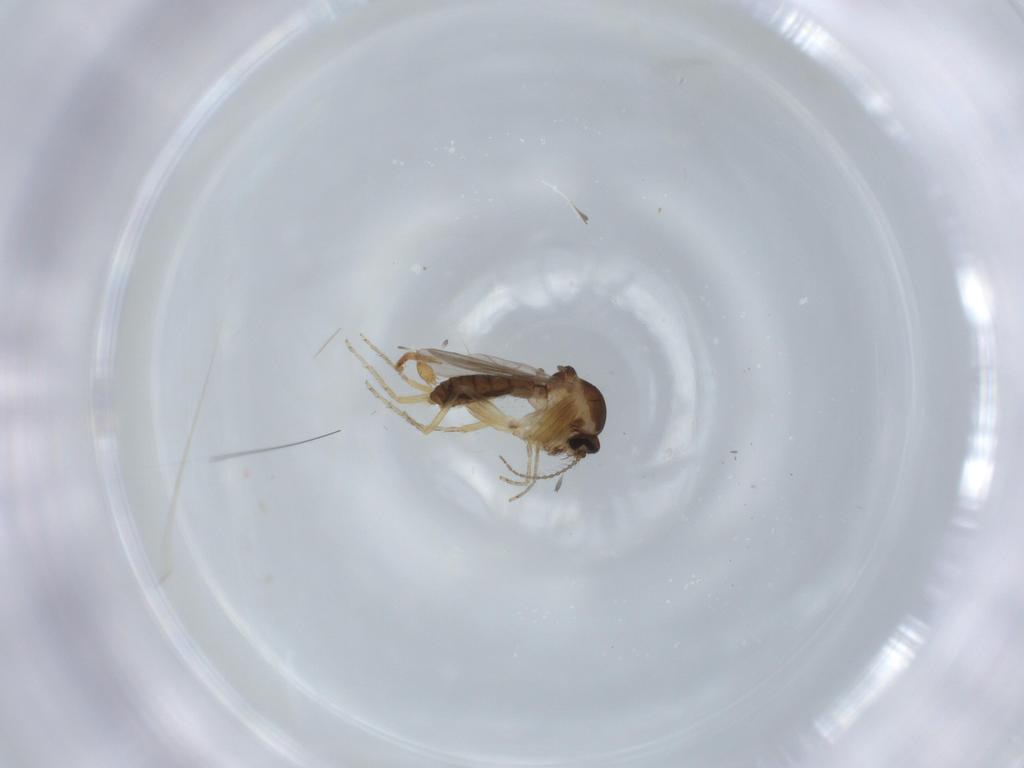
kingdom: Animalia
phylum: Arthropoda
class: Insecta
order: Diptera
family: Ceratopogonidae
